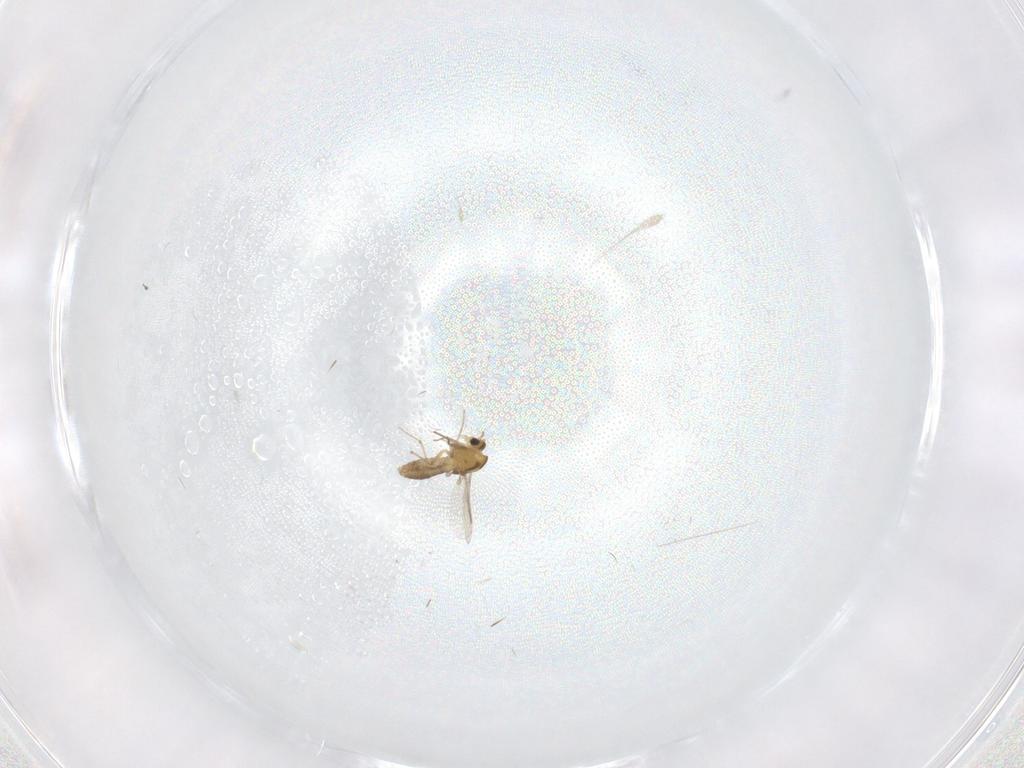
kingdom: Animalia
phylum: Arthropoda
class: Insecta
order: Diptera
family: Chironomidae
